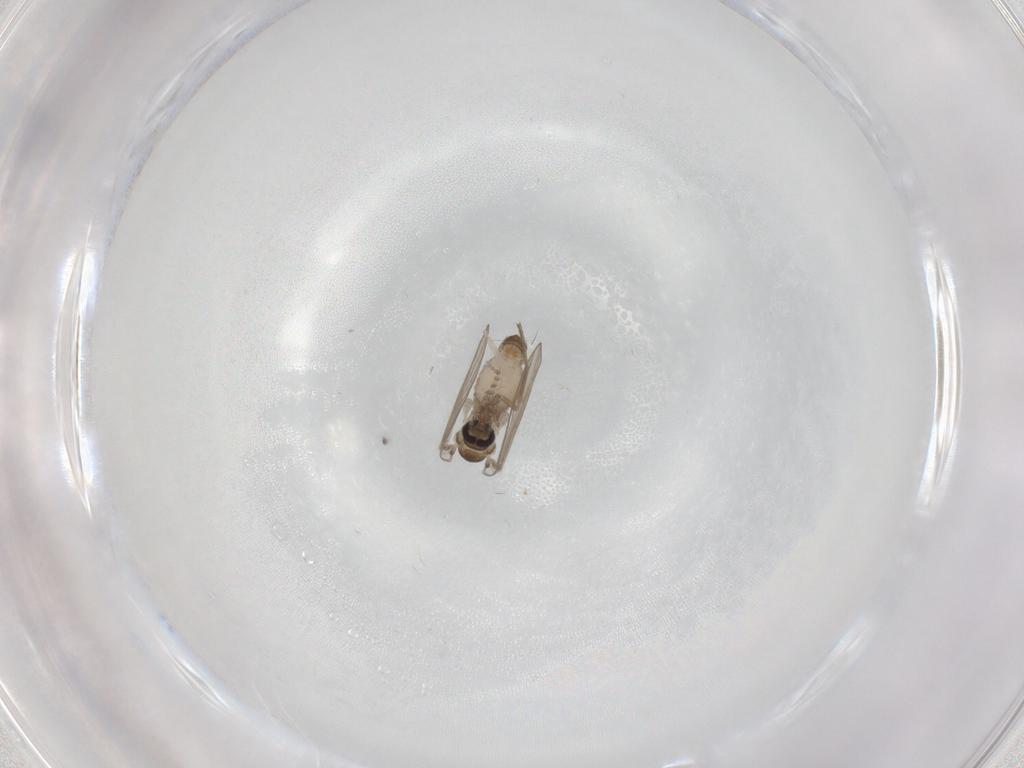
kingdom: Animalia
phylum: Arthropoda
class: Insecta
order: Diptera
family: Psychodidae
